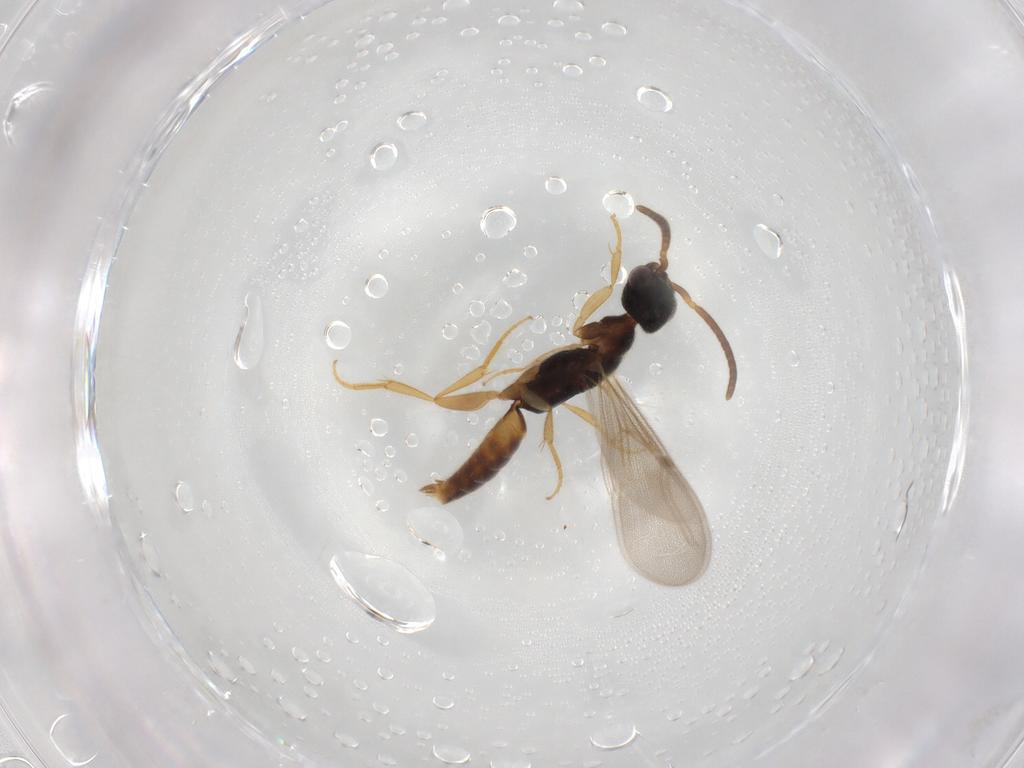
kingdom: Animalia
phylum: Arthropoda
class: Insecta
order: Hymenoptera
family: Bethylidae
